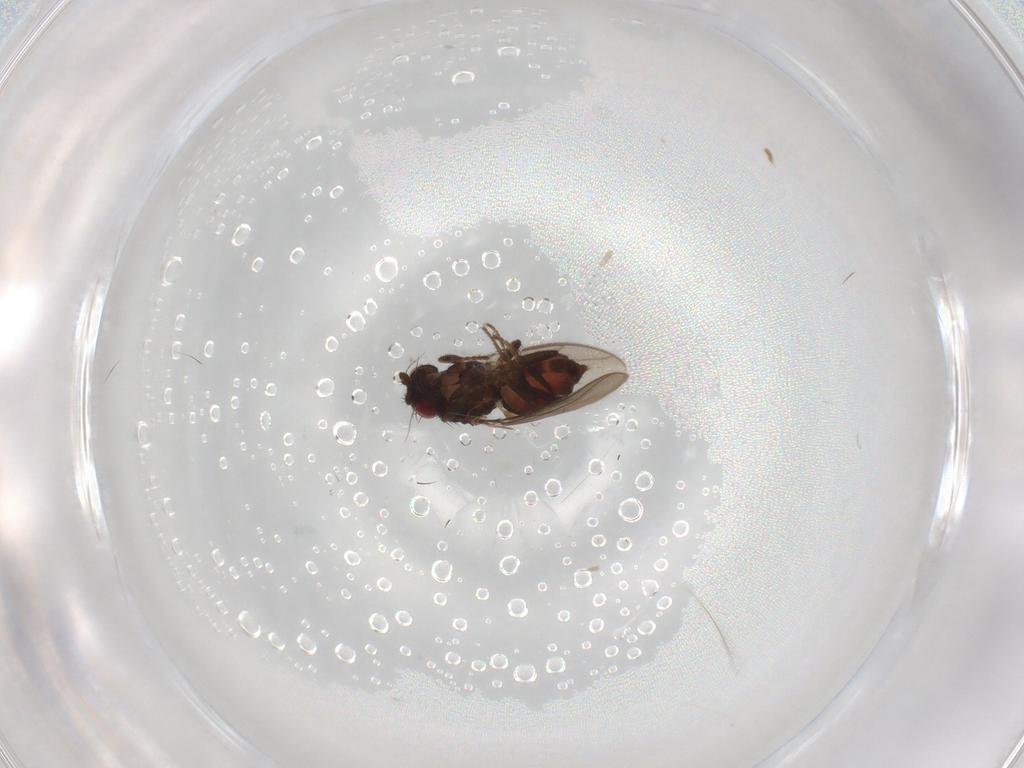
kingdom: Animalia
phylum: Arthropoda
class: Insecta
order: Diptera
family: Sphaeroceridae
